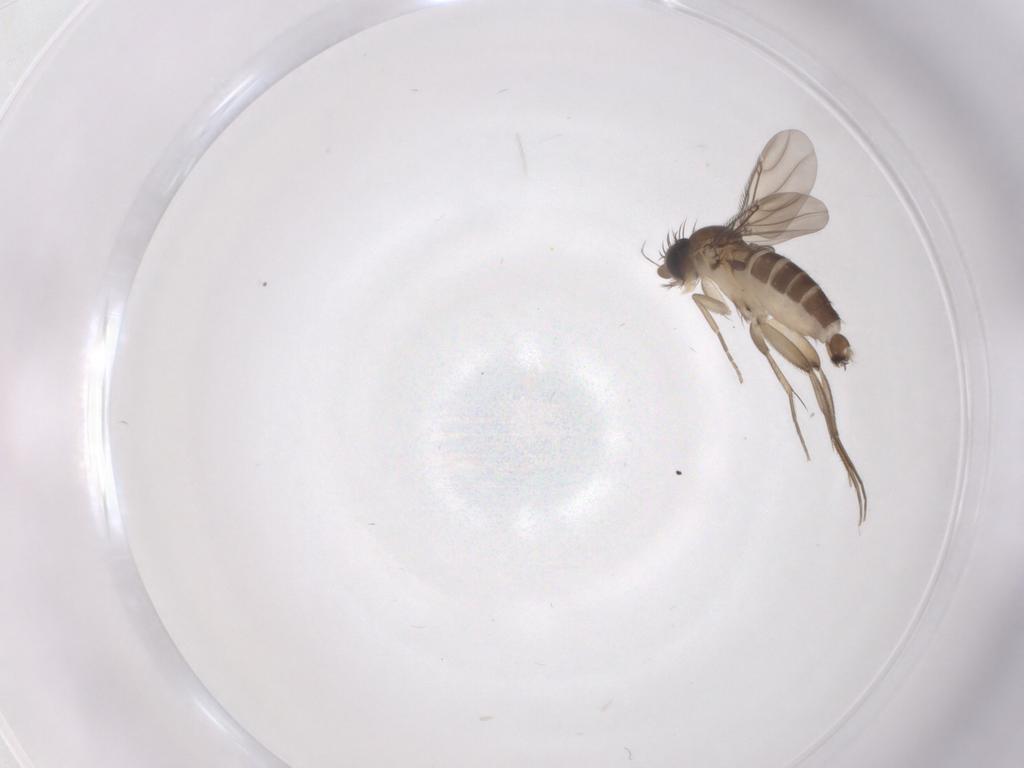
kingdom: Animalia
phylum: Arthropoda
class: Insecta
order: Diptera
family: Phoridae
